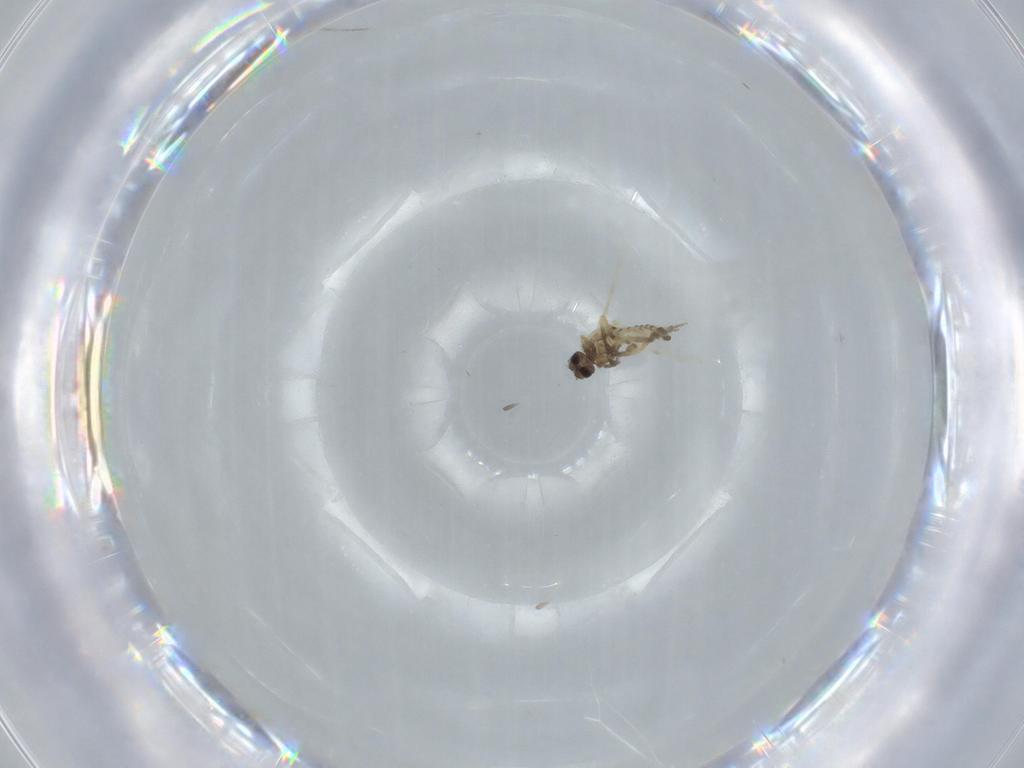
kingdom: Animalia
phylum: Arthropoda
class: Insecta
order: Diptera
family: Ceratopogonidae
